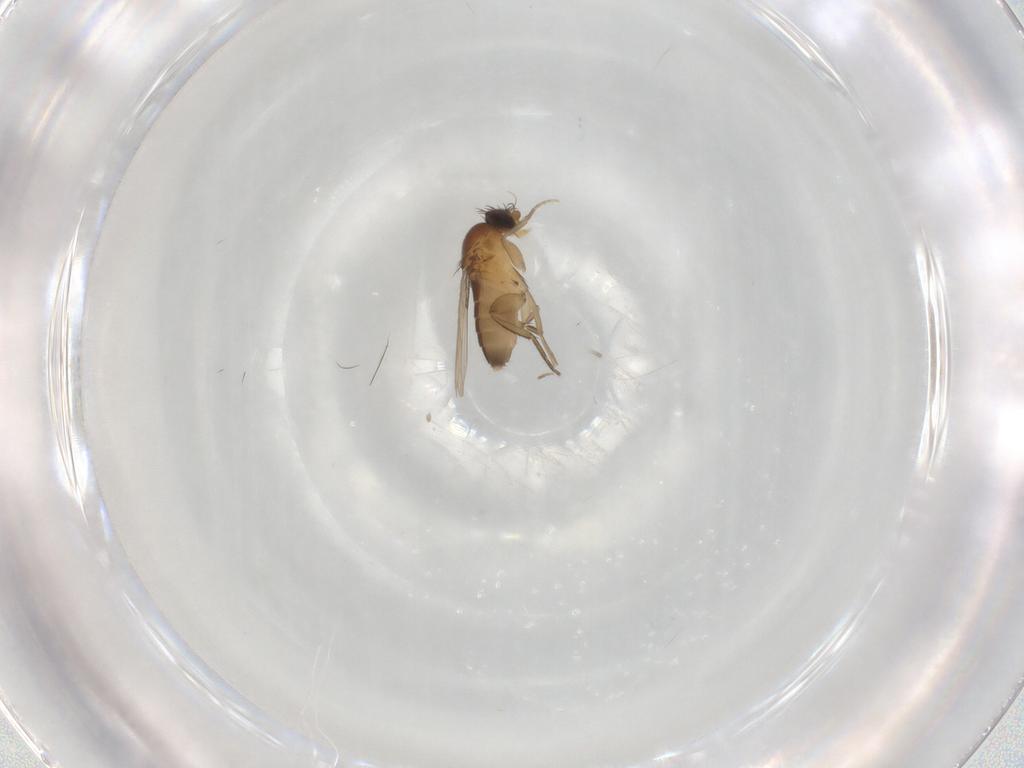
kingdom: Animalia
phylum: Arthropoda
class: Insecta
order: Diptera
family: Phoridae
